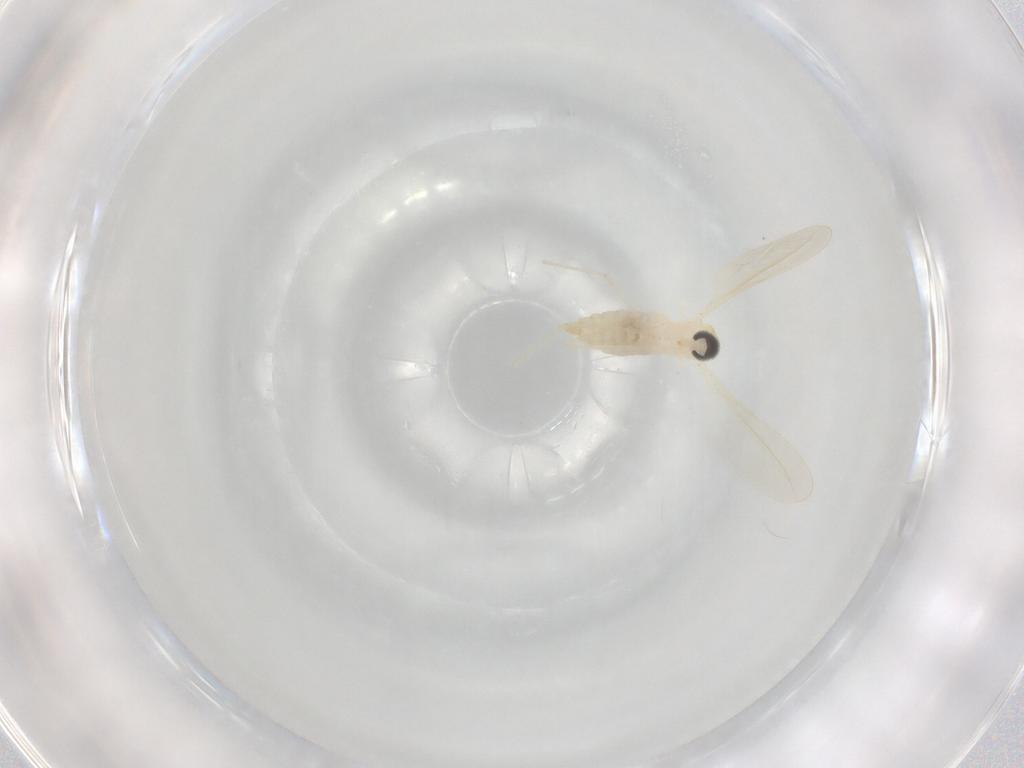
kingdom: Animalia
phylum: Arthropoda
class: Insecta
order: Diptera
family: Cecidomyiidae
